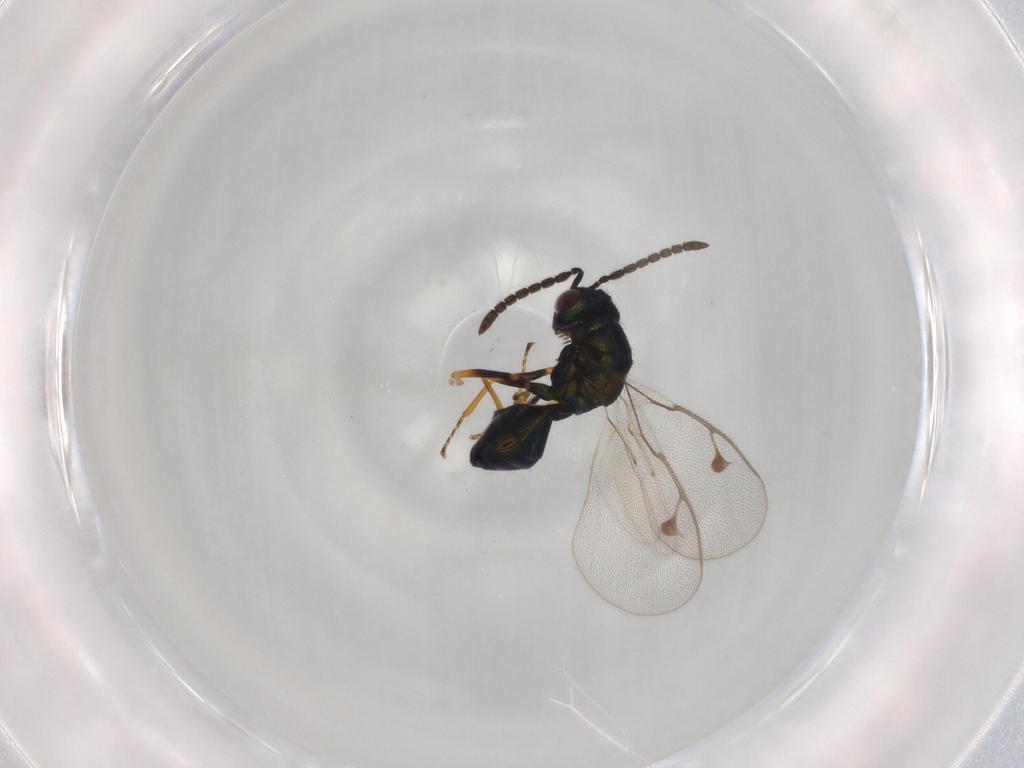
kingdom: Animalia
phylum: Arthropoda
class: Insecta
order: Hymenoptera
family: Pteromalidae
